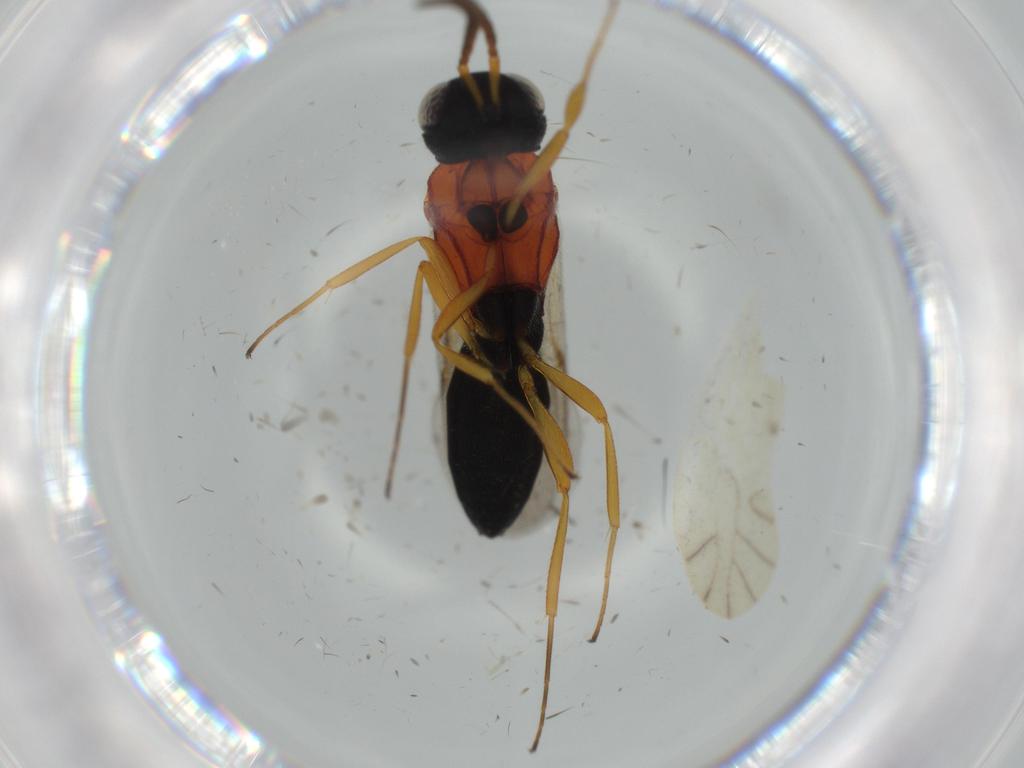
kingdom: Animalia
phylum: Arthropoda
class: Insecta
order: Hymenoptera
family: Scelionidae
